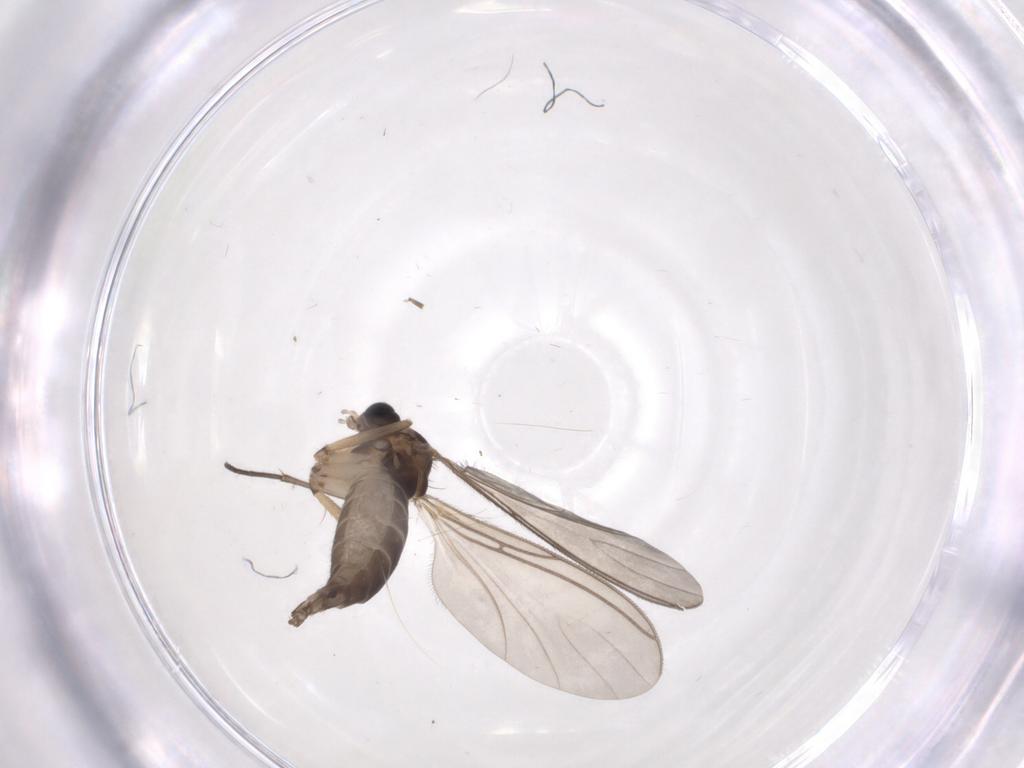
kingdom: Animalia
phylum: Arthropoda
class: Insecta
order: Diptera
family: Sciaridae
